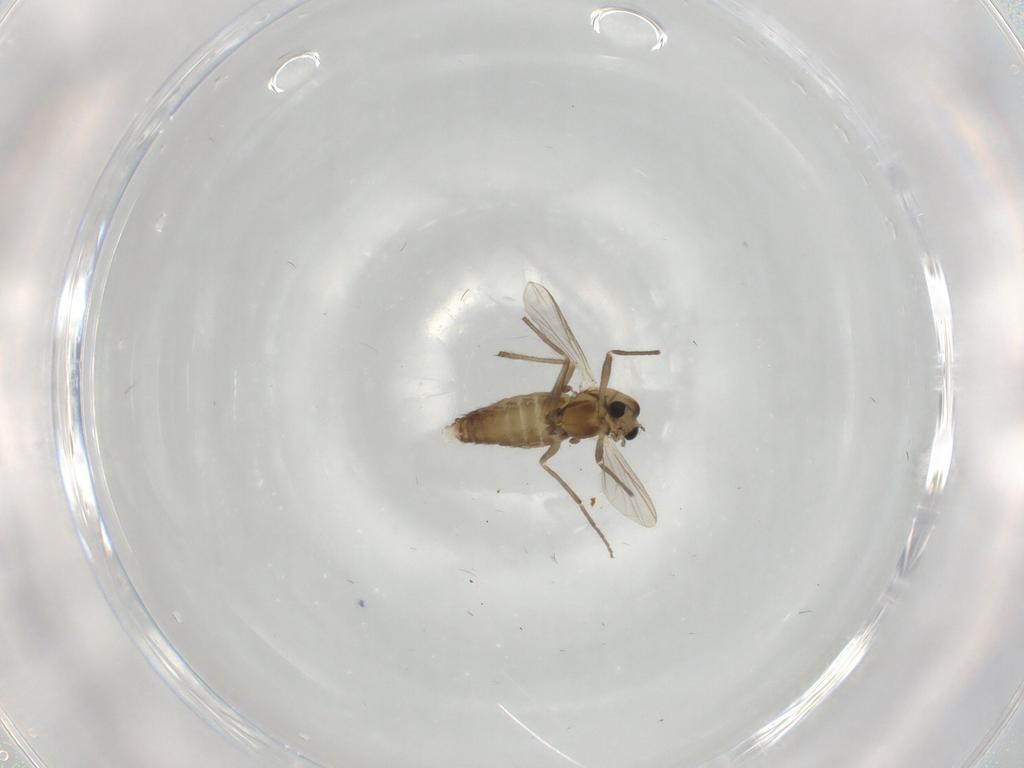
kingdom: Animalia
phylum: Arthropoda
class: Insecta
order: Diptera
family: Chironomidae
